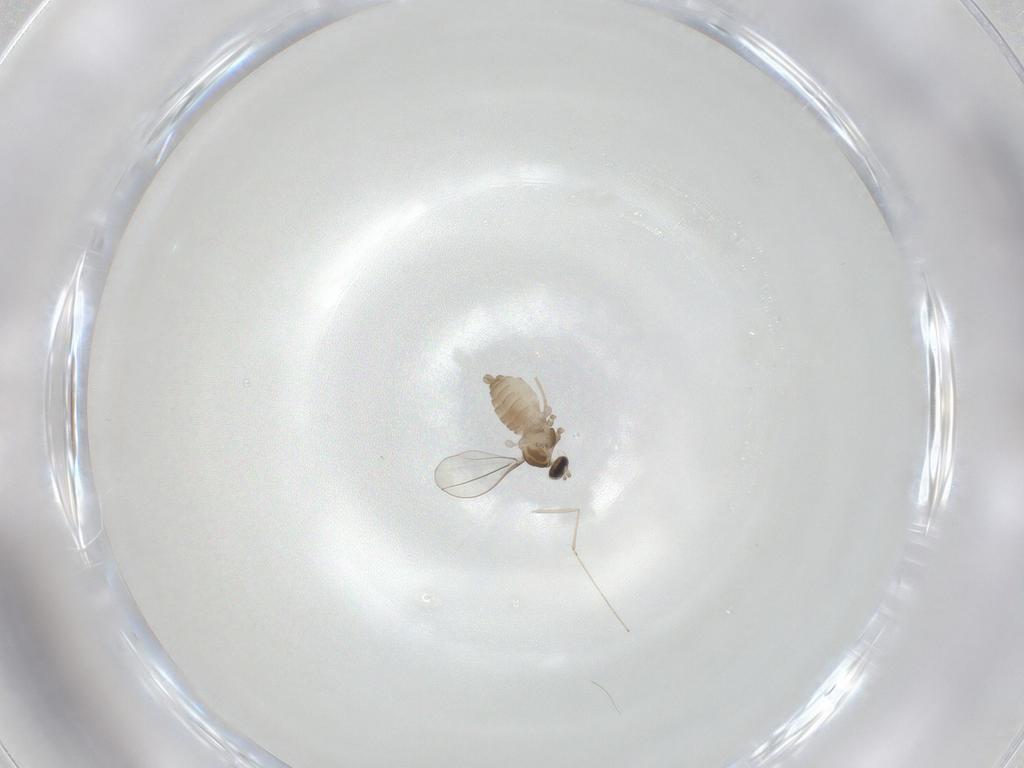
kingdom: Animalia
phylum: Arthropoda
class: Insecta
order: Diptera
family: Cecidomyiidae
